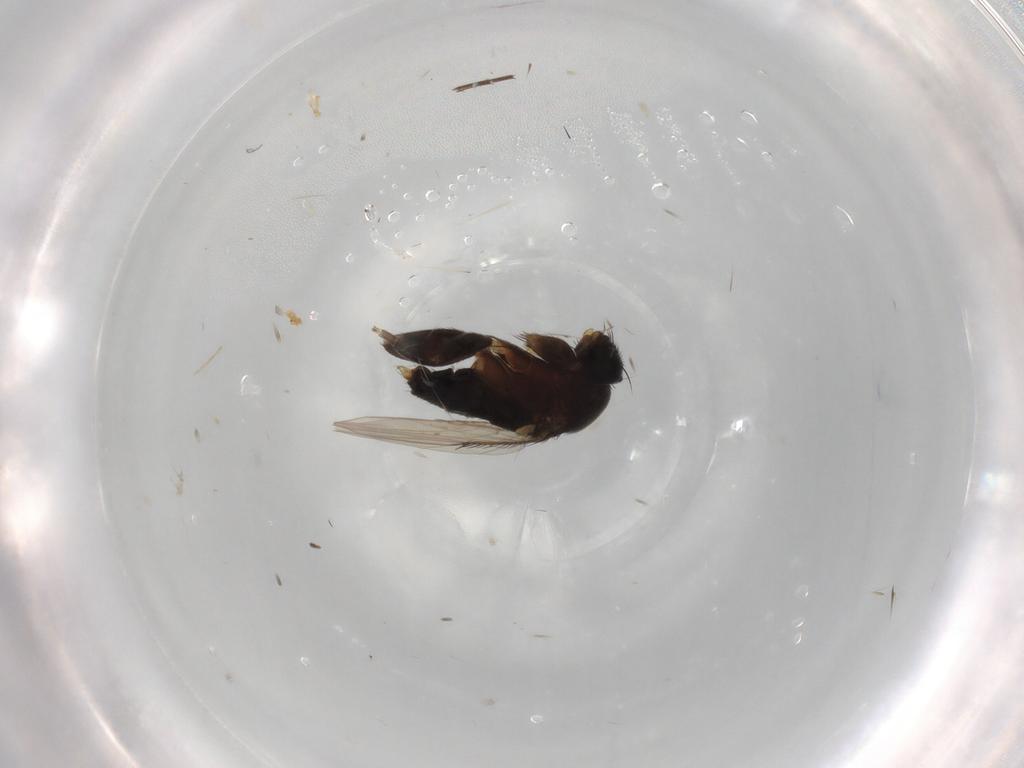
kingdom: Animalia
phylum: Arthropoda
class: Insecta
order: Diptera
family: Phoridae
